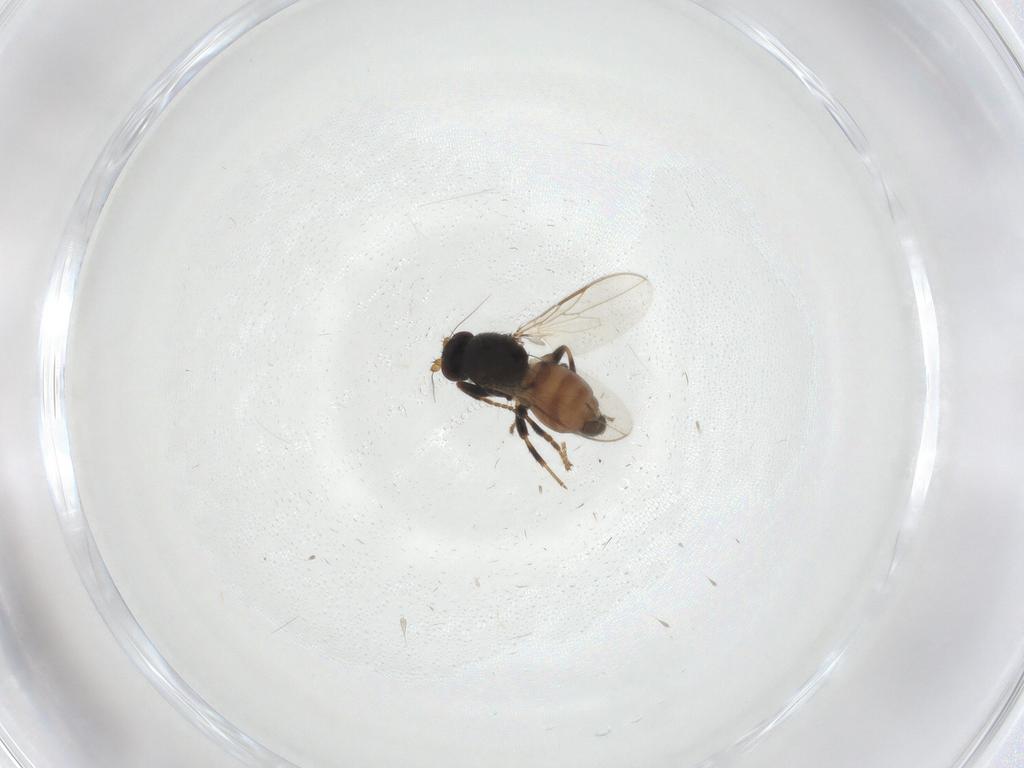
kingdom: Animalia
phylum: Arthropoda
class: Insecta
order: Diptera
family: Sphaeroceridae
